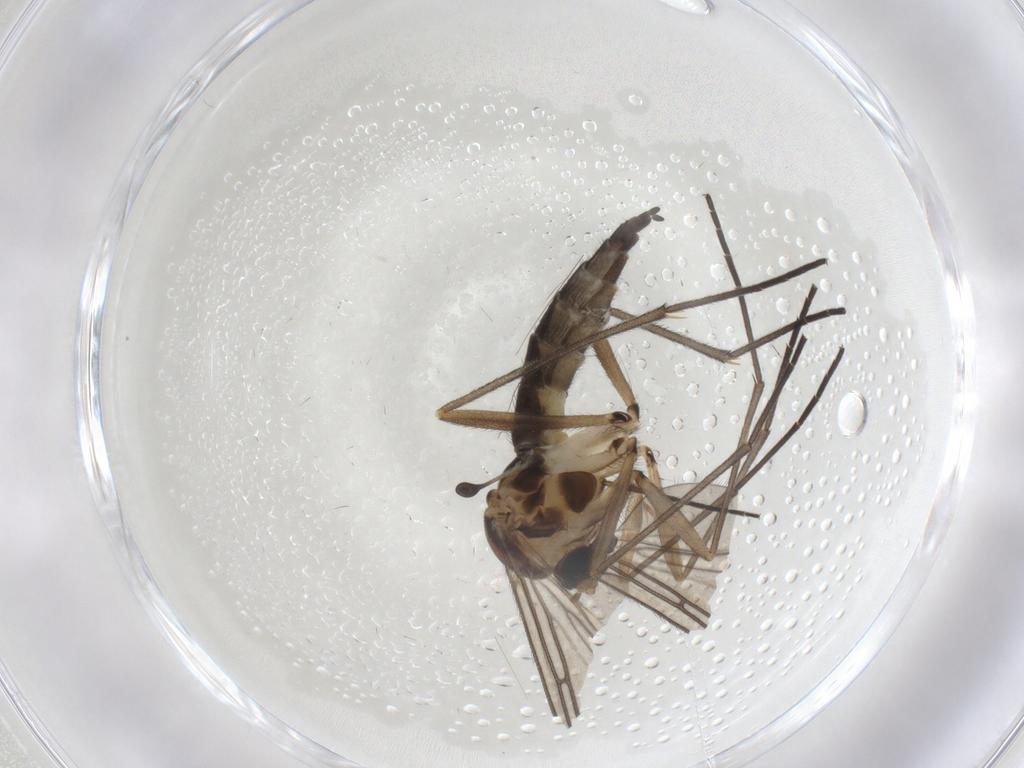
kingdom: Animalia
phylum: Arthropoda
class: Insecta
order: Diptera
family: Sciaridae
